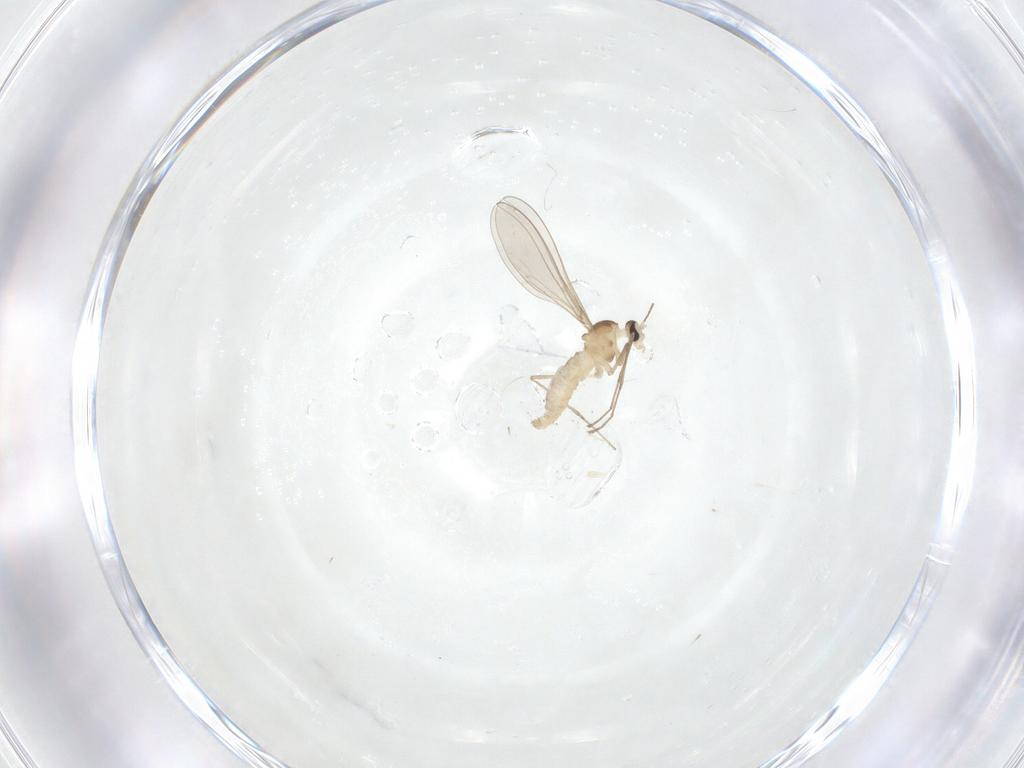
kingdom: Animalia
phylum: Arthropoda
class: Insecta
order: Diptera
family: Cecidomyiidae
